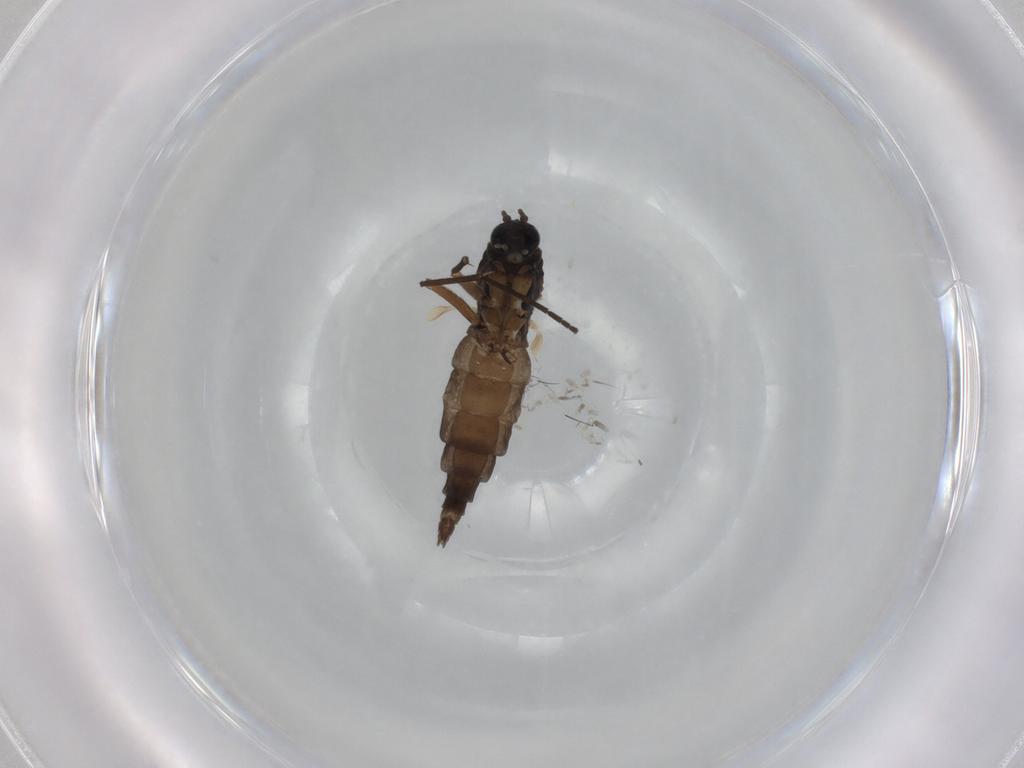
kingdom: Animalia
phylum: Arthropoda
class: Insecta
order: Diptera
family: Sciaridae
